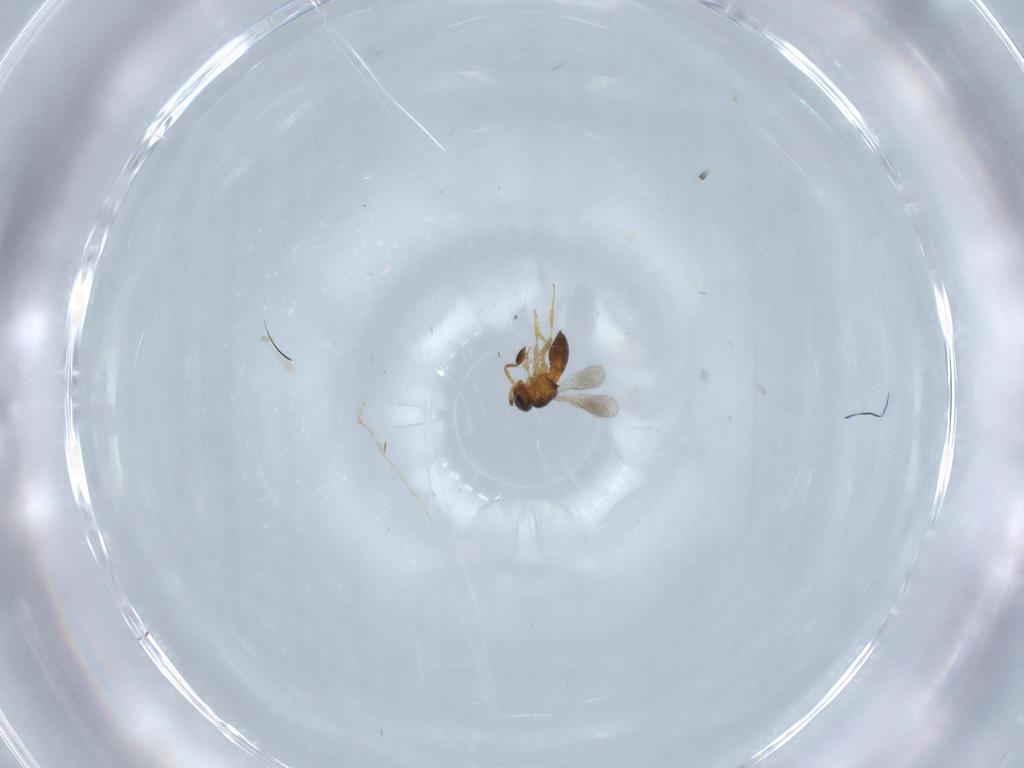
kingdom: Animalia
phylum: Arthropoda
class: Insecta
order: Hymenoptera
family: Scelionidae
